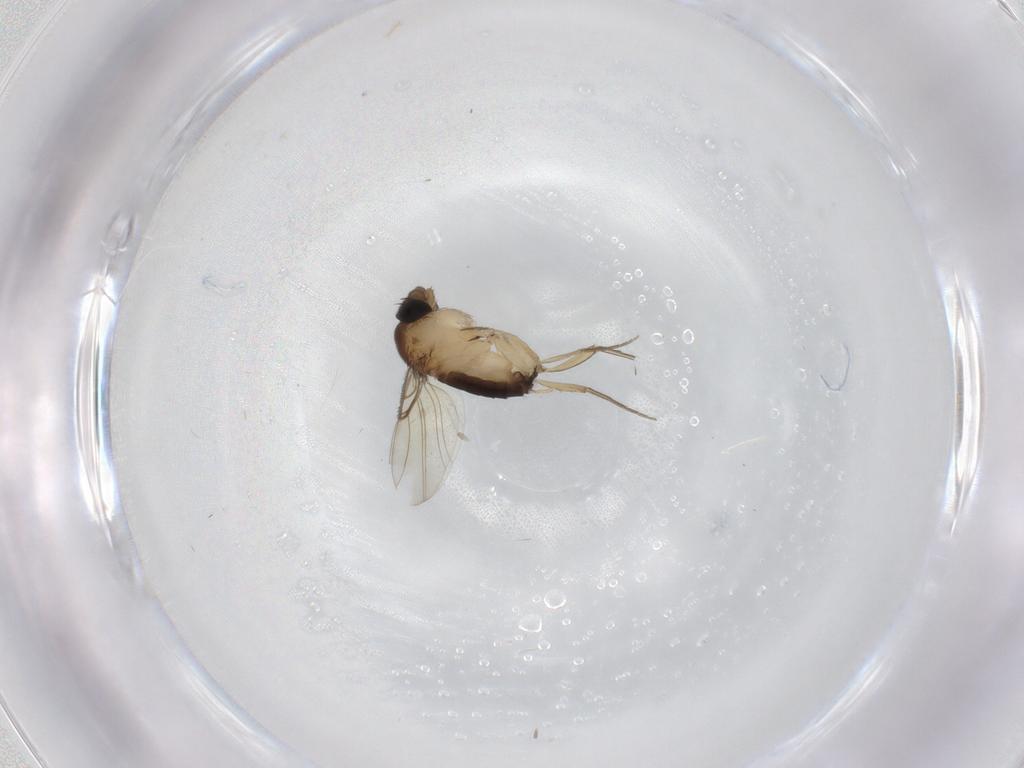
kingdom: Animalia
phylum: Arthropoda
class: Insecta
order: Diptera
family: Phoridae
